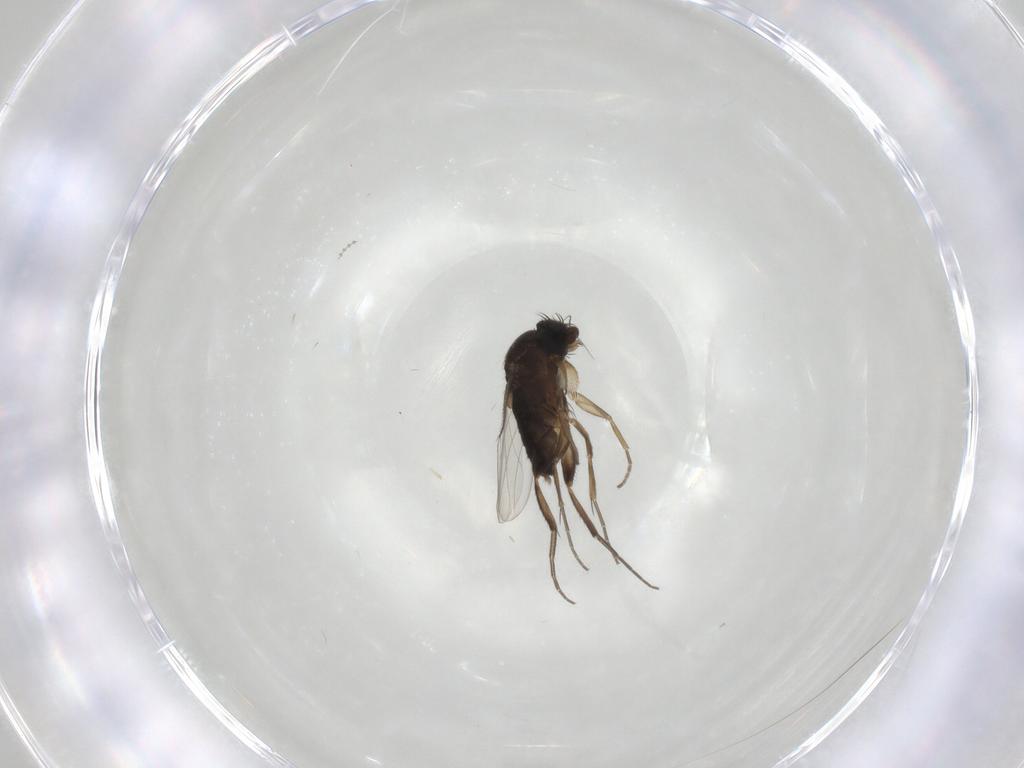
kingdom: Animalia
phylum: Arthropoda
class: Insecta
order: Diptera
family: Phoridae
